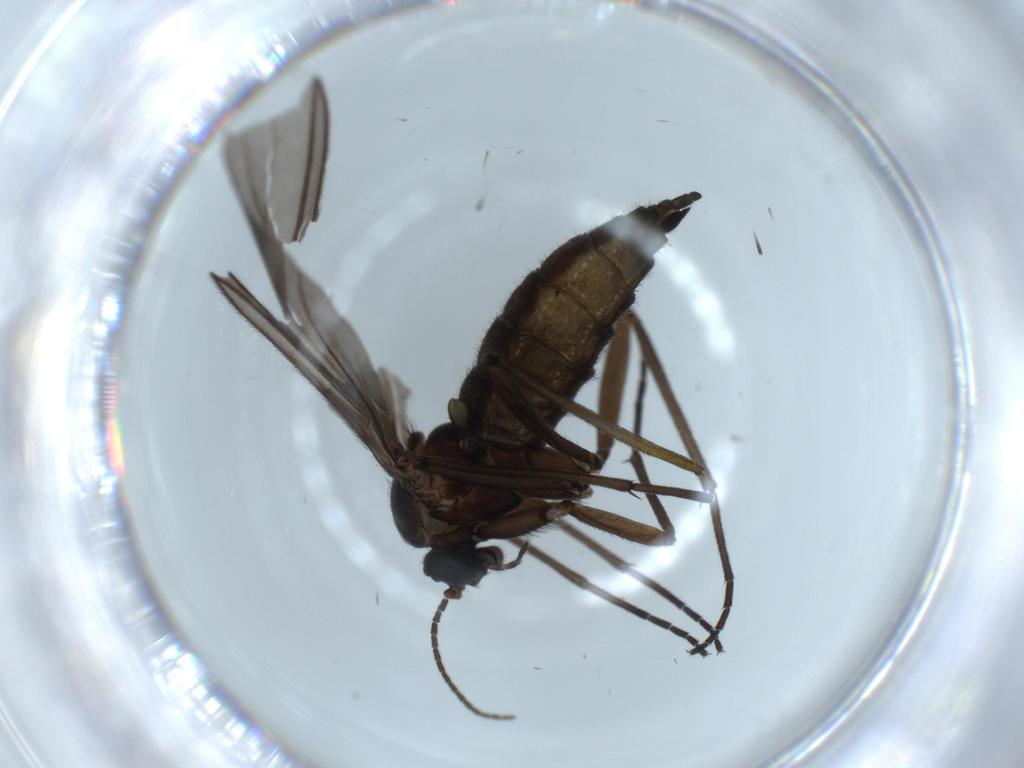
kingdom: Animalia
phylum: Arthropoda
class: Insecta
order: Diptera
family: Sciaridae
